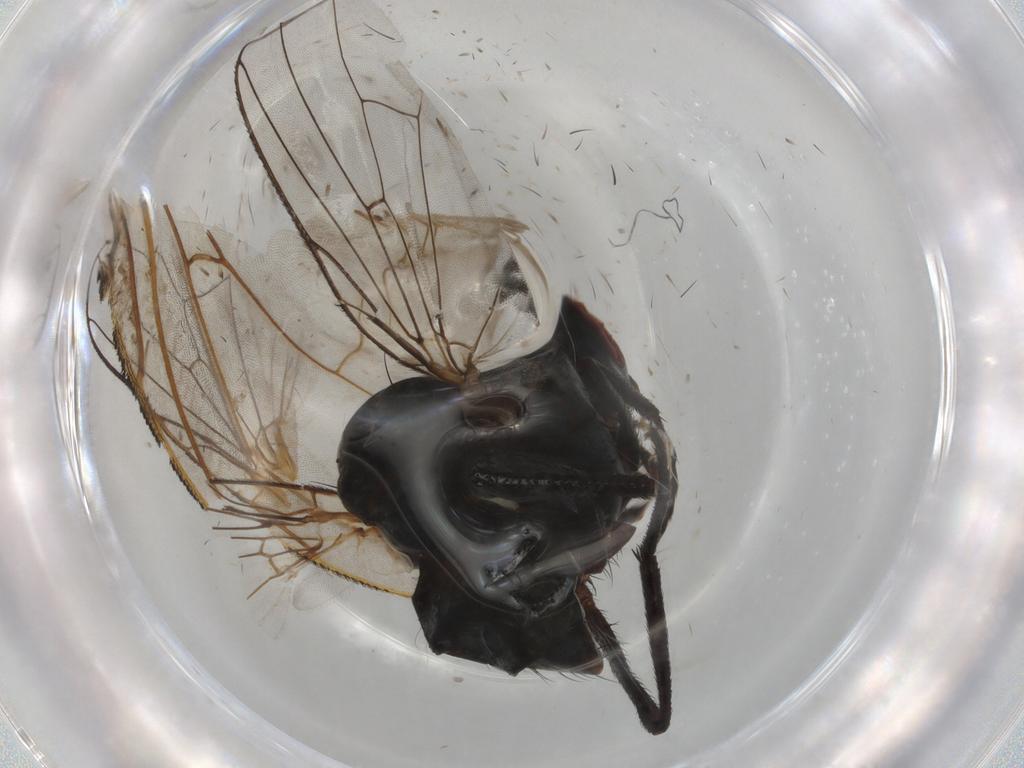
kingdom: Animalia
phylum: Arthropoda
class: Insecta
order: Diptera
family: Anthomyiidae
